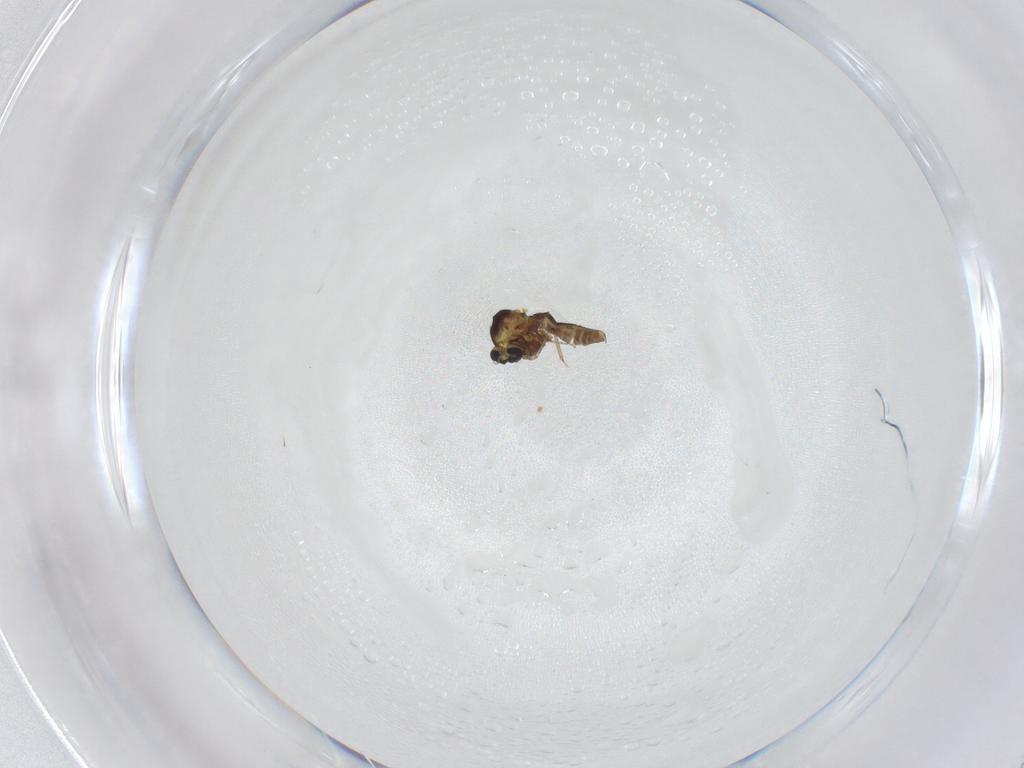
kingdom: Animalia
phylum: Arthropoda
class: Insecta
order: Diptera
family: Ceratopogonidae
